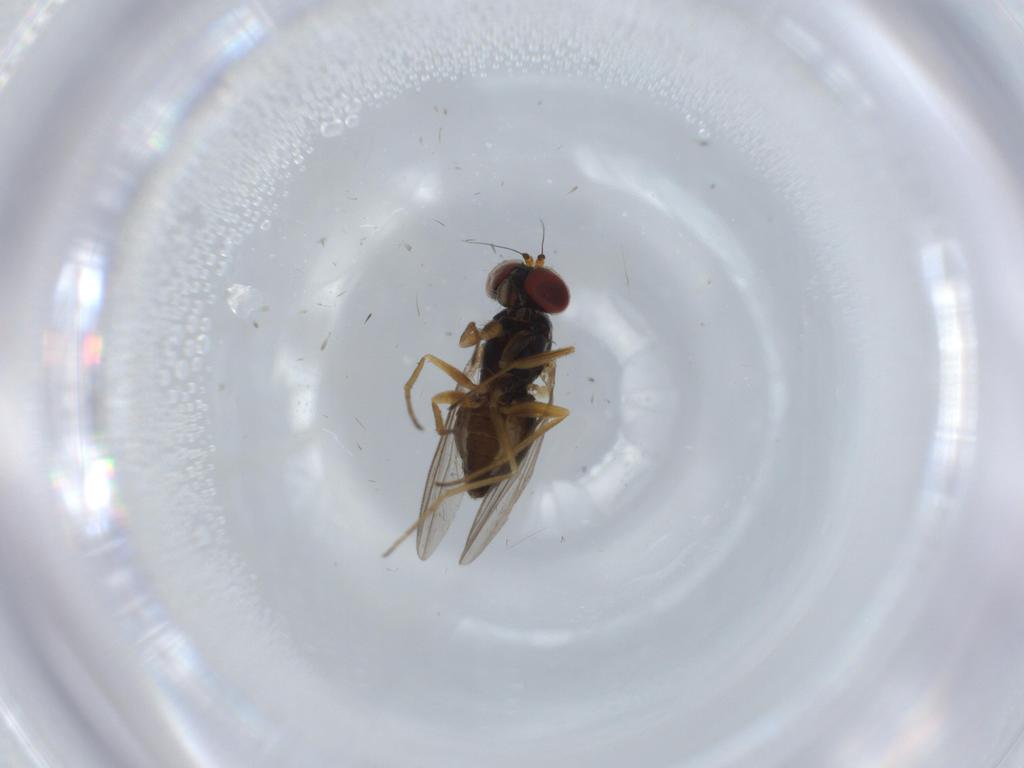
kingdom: Animalia
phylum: Arthropoda
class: Insecta
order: Diptera
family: Dolichopodidae
